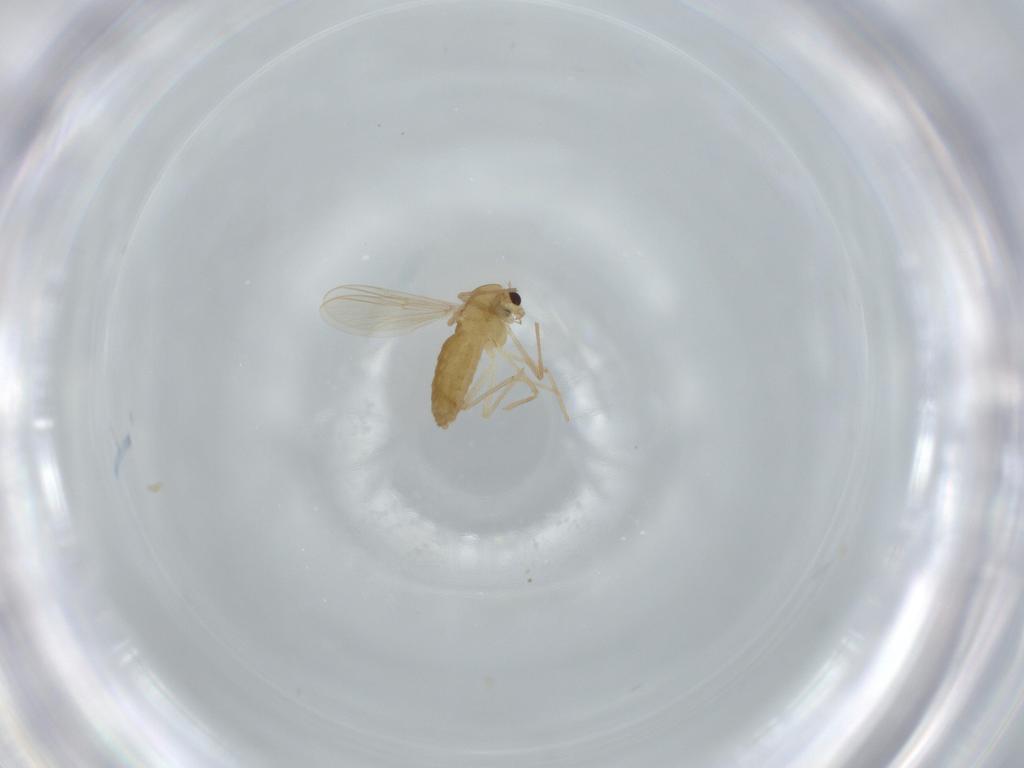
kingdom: Animalia
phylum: Arthropoda
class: Insecta
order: Diptera
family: Chironomidae
